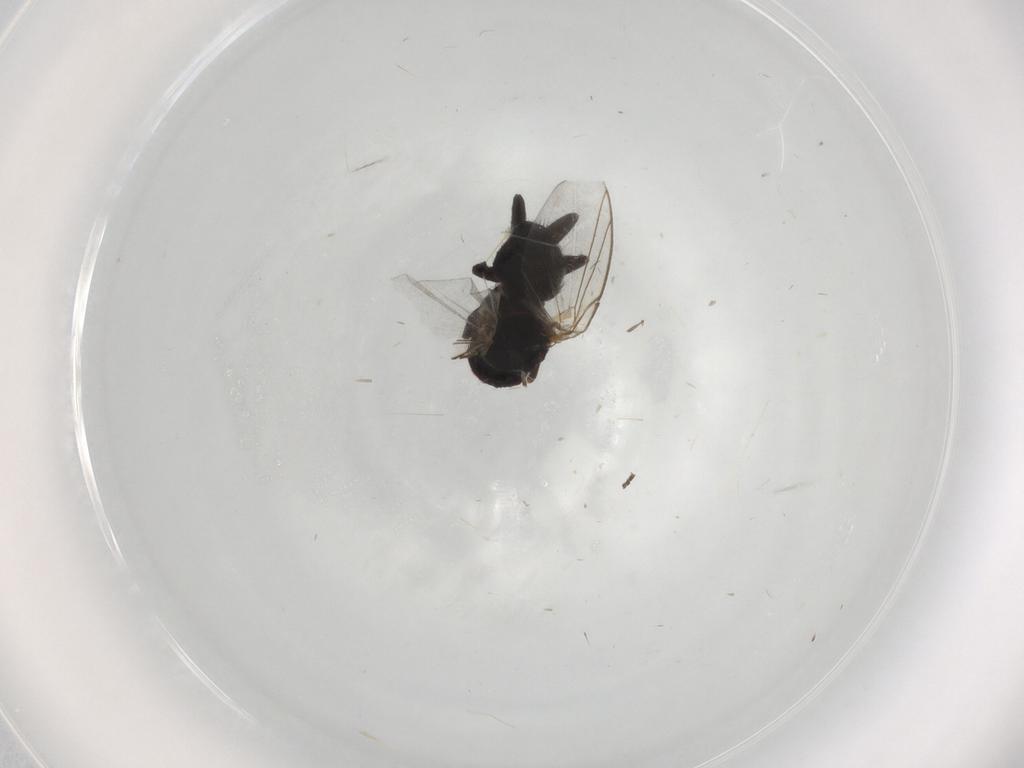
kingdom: Animalia
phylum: Arthropoda
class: Insecta
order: Diptera
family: Agromyzidae
